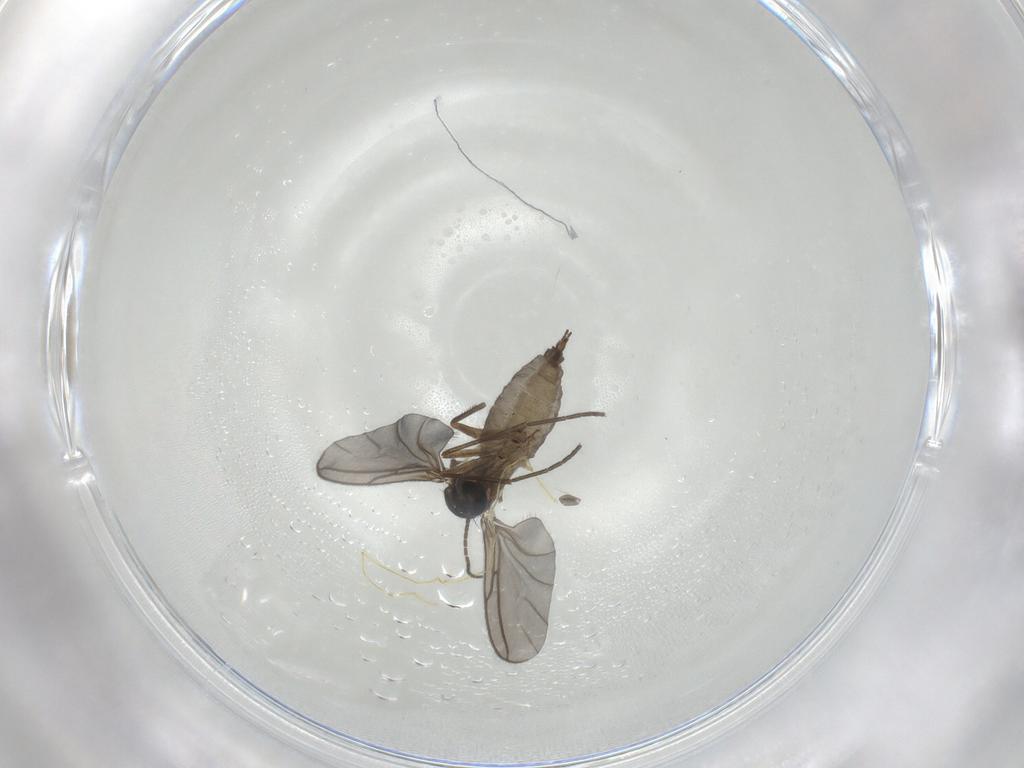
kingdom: Animalia
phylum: Arthropoda
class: Insecta
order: Diptera
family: Sciaridae
